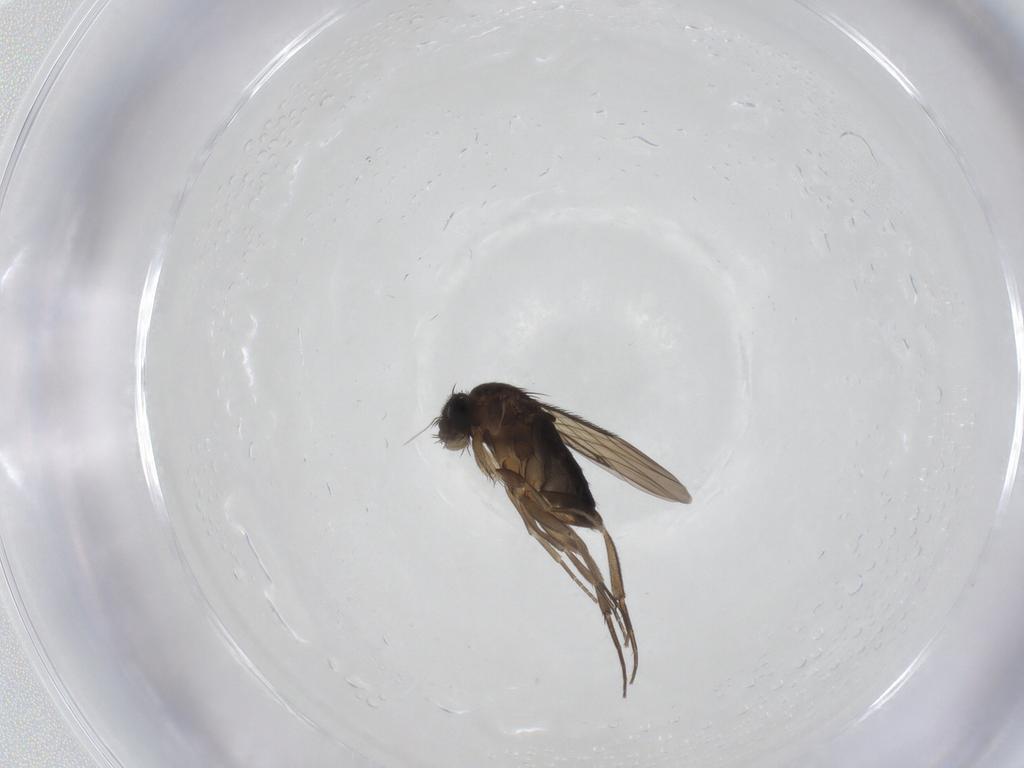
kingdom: Animalia
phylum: Arthropoda
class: Insecta
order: Diptera
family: Phoridae
